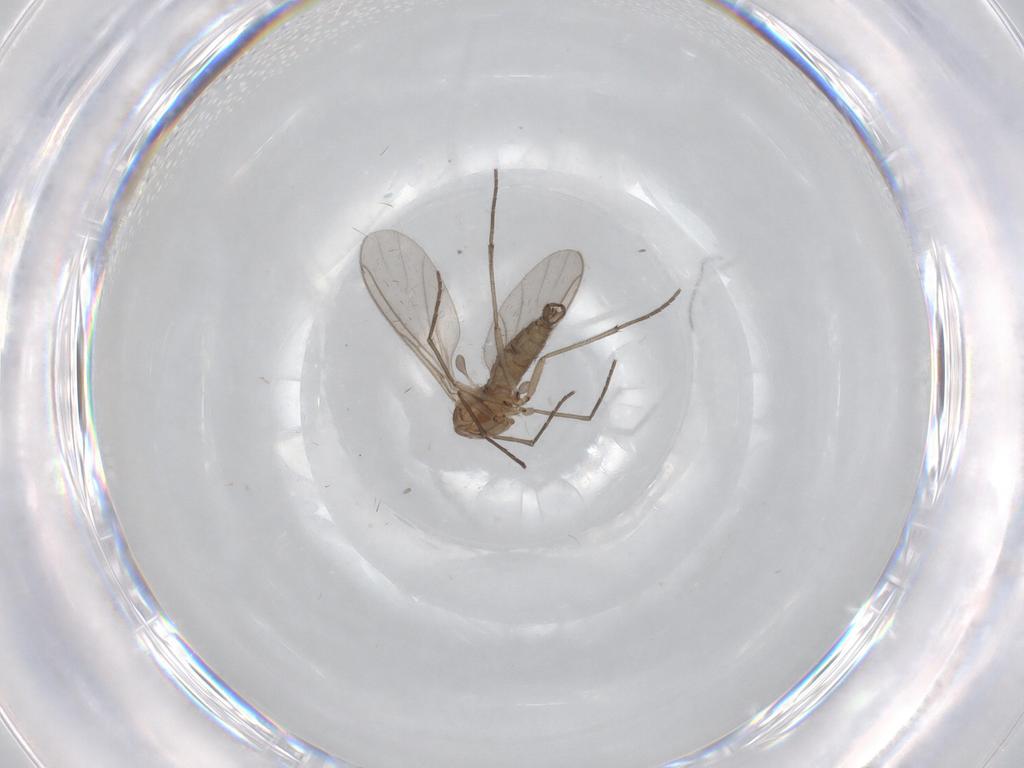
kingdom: Animalia
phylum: Arthropoda
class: Insecta
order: Diptera
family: Sciaridae
